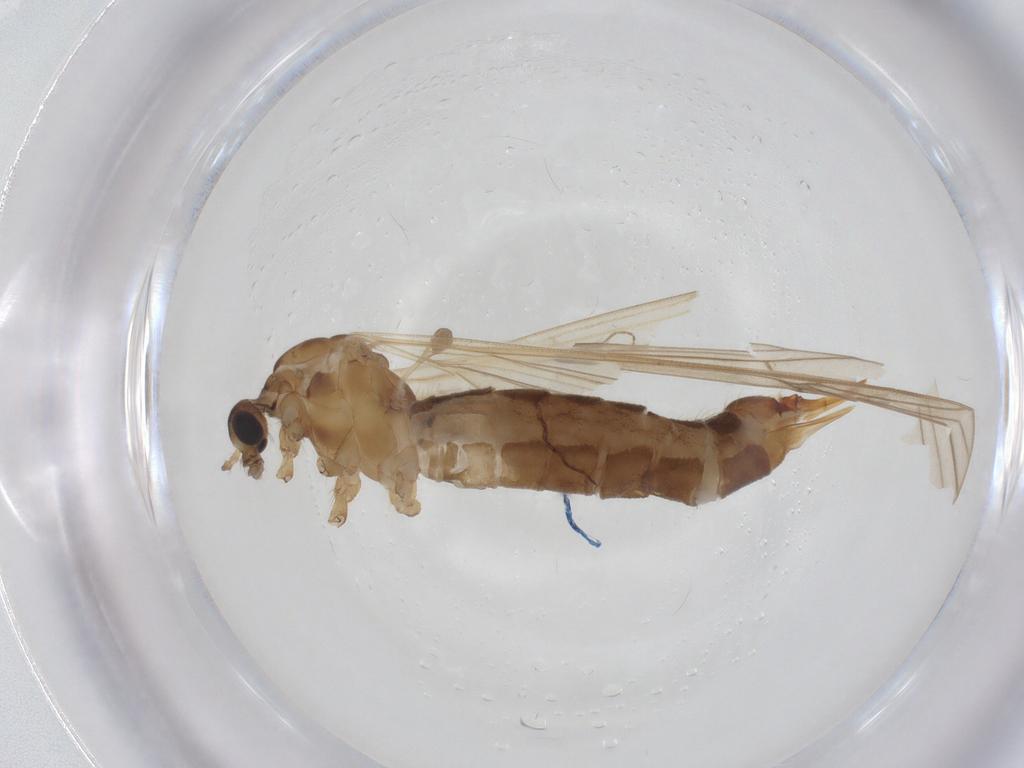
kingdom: Animalia
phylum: Arthropoda
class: Insecta
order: Diptera
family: Limoniidae
